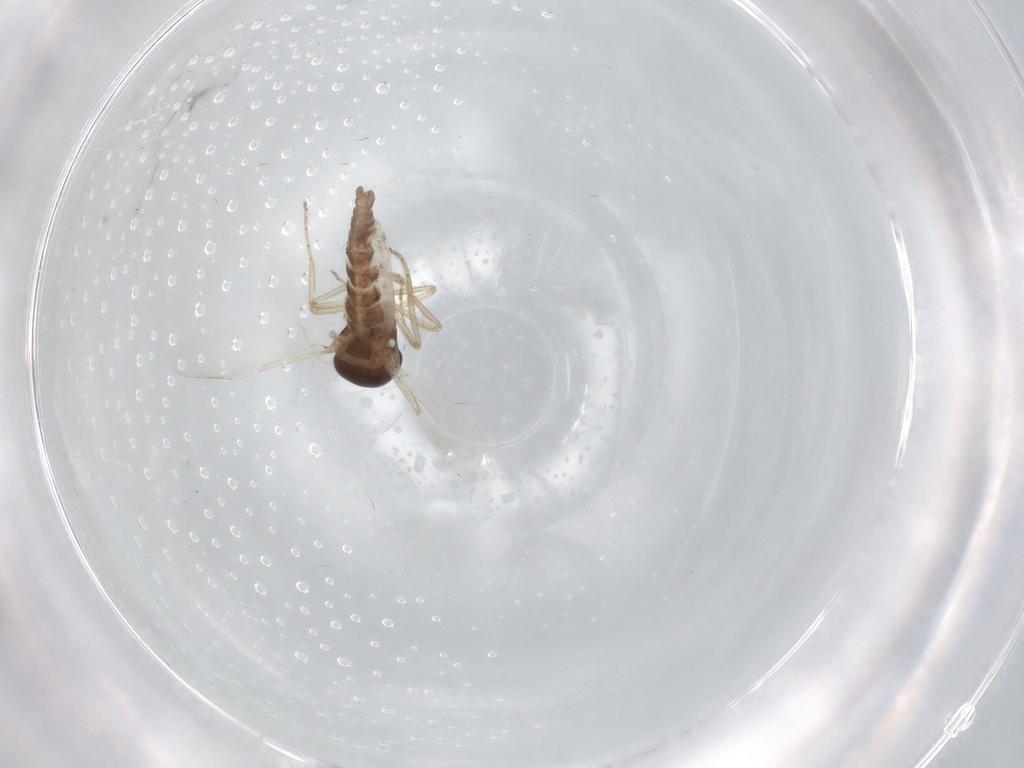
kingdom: Animalia
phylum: Arthropoda
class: Insecta
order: Diptera
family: Ceratopogonidae
